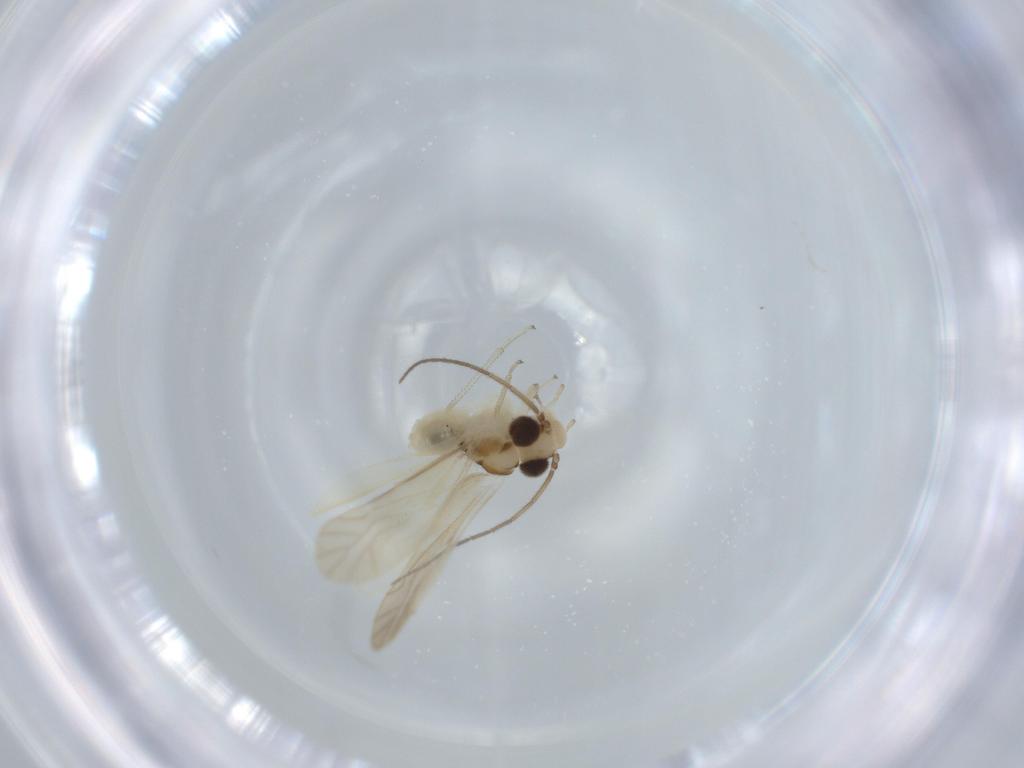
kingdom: Animalia
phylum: Arthropoda
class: Insecta
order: Psocodea
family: Caeciliusidae
